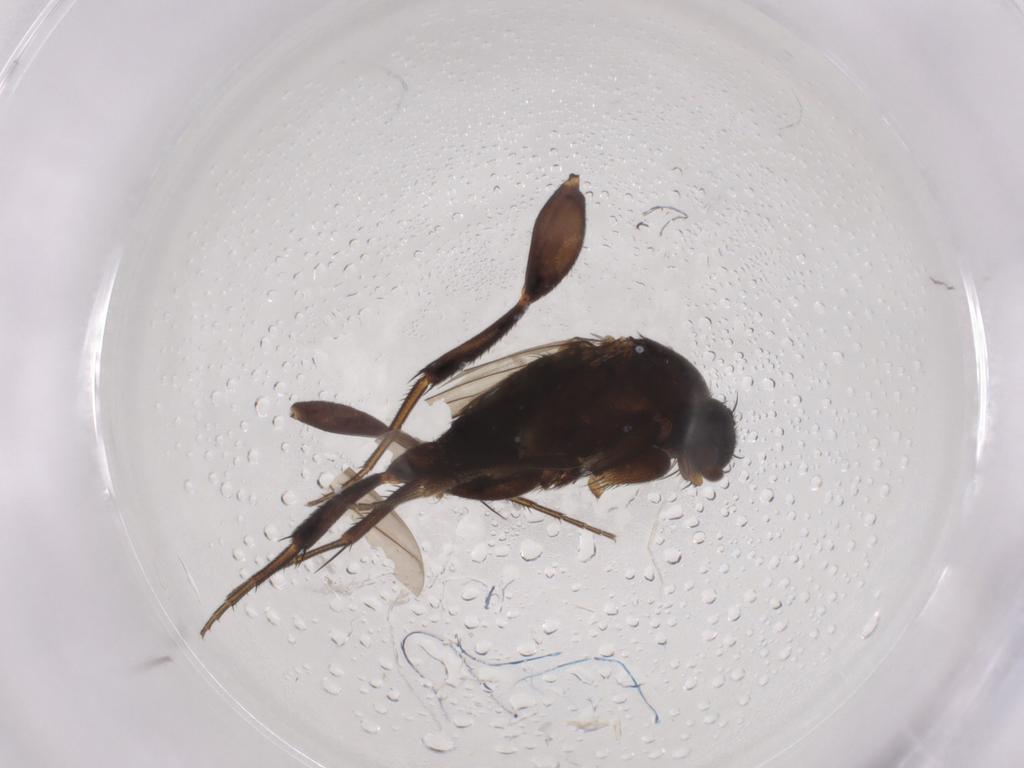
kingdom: Animalia
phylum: Arthropoda
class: Insecta
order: Diptera
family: Phoridae
